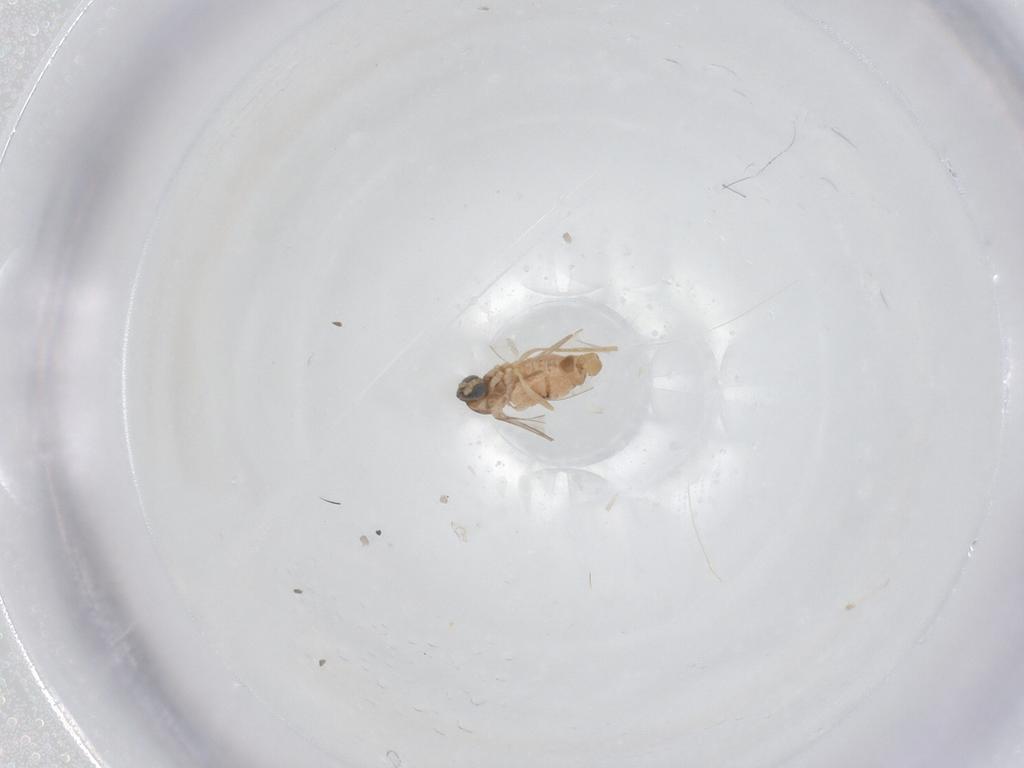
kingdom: Animalia
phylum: Arthropoda
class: Insecta
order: Diptera
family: Cecidomyiidae
